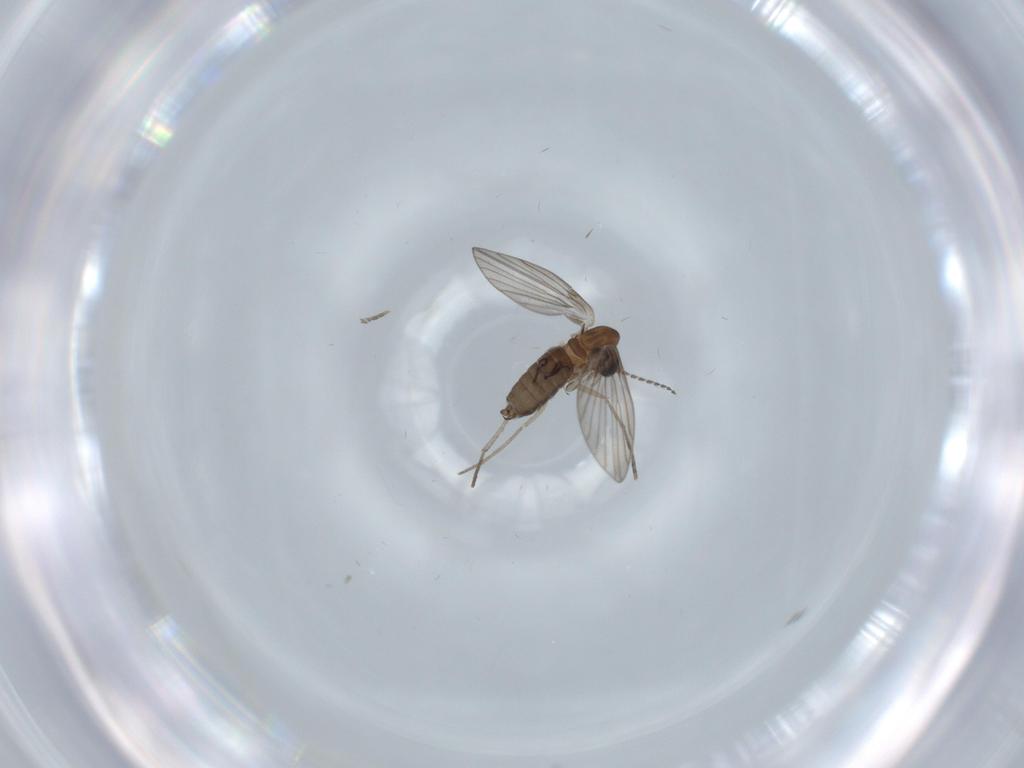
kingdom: Animalia
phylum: Arthropoda
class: Insecta
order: Diptera
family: Psychodidae
